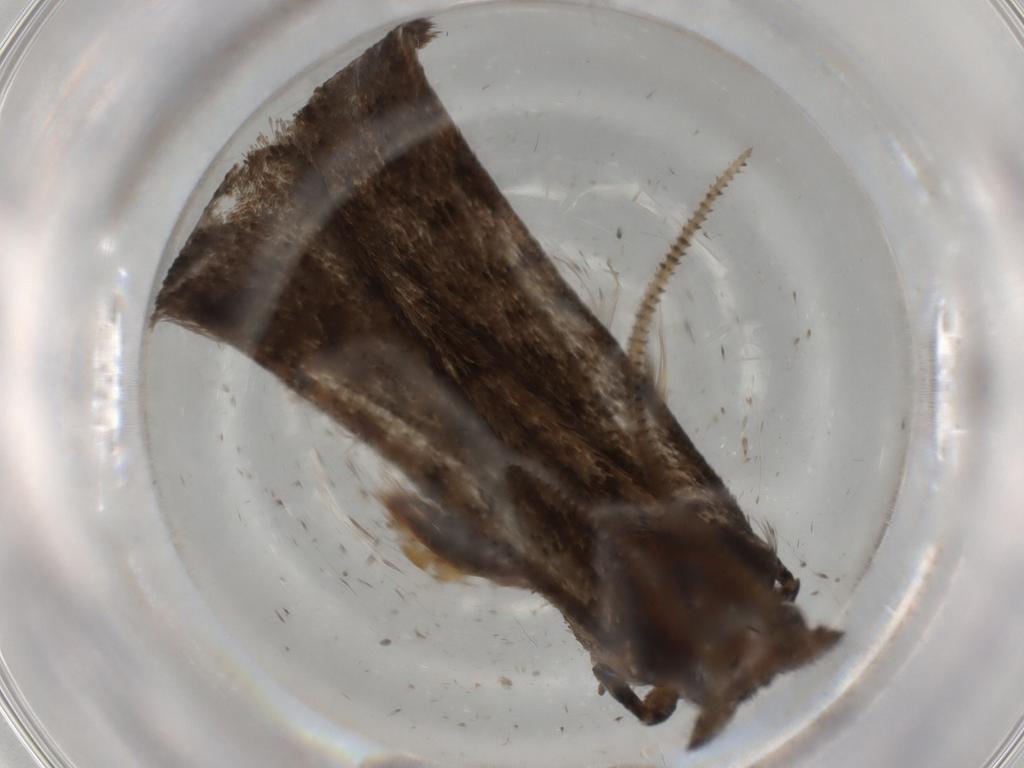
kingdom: Animalia
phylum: Arthropoda
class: Insecta
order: Lepidoptera
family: Tineidae
